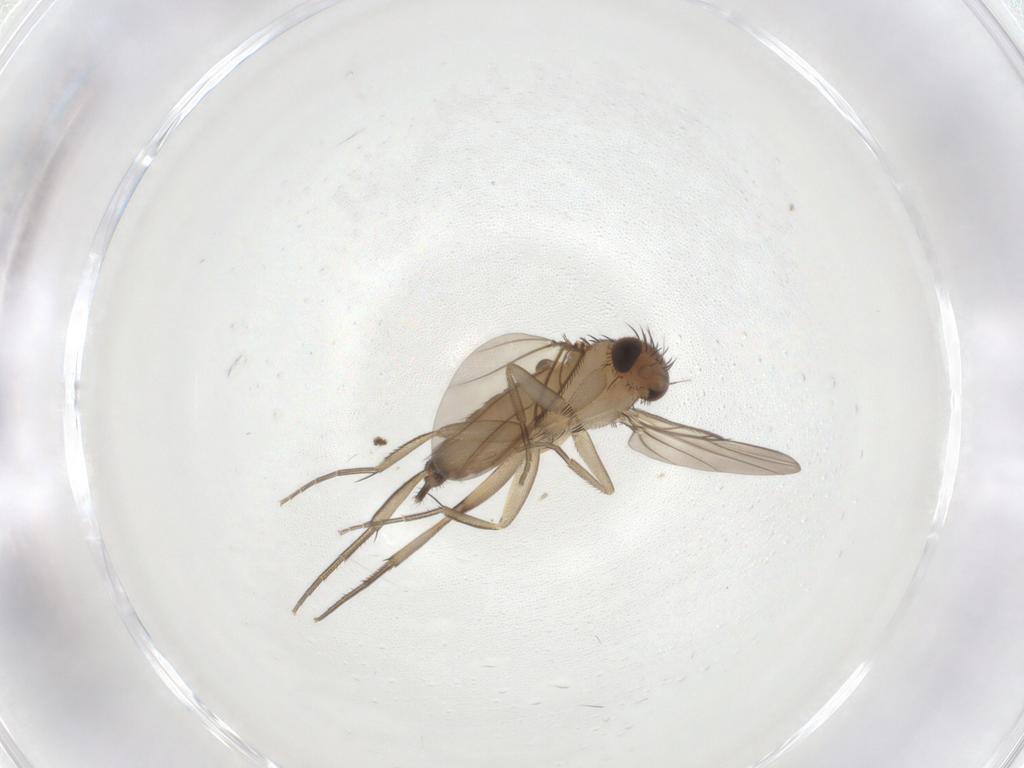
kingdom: Animalia
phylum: Arthropoda
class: Insecta
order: Diptera
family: Phoridae
